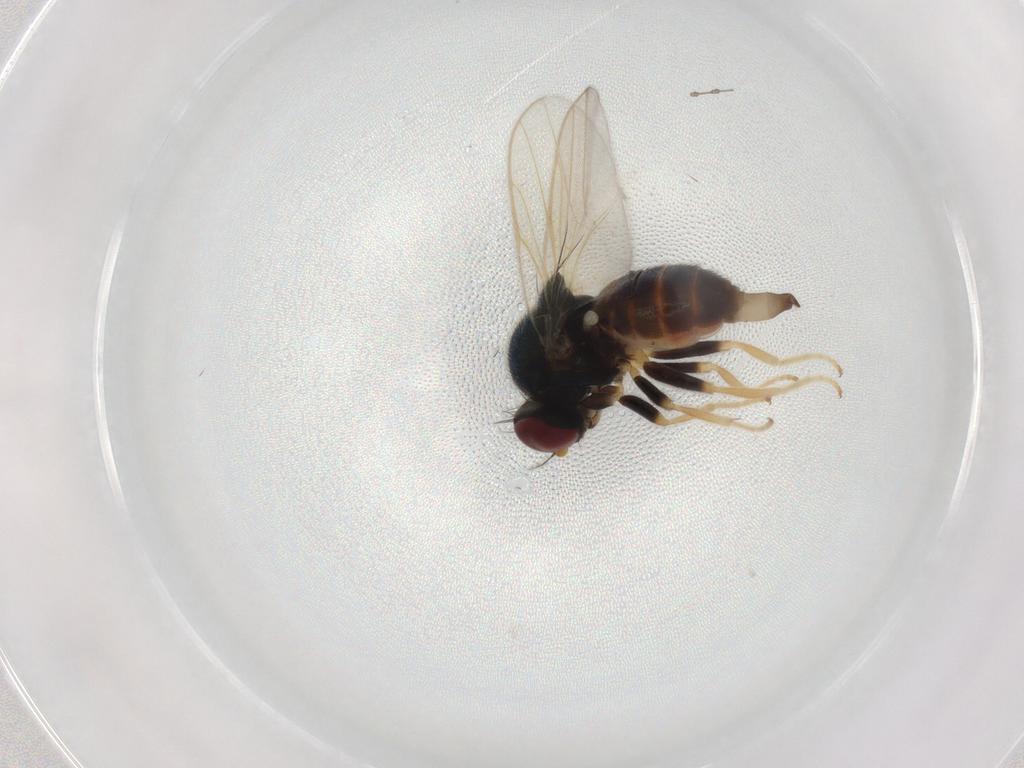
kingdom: Animalia
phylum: Arthropoda
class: Insecta
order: Diptera
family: Chloropidae
